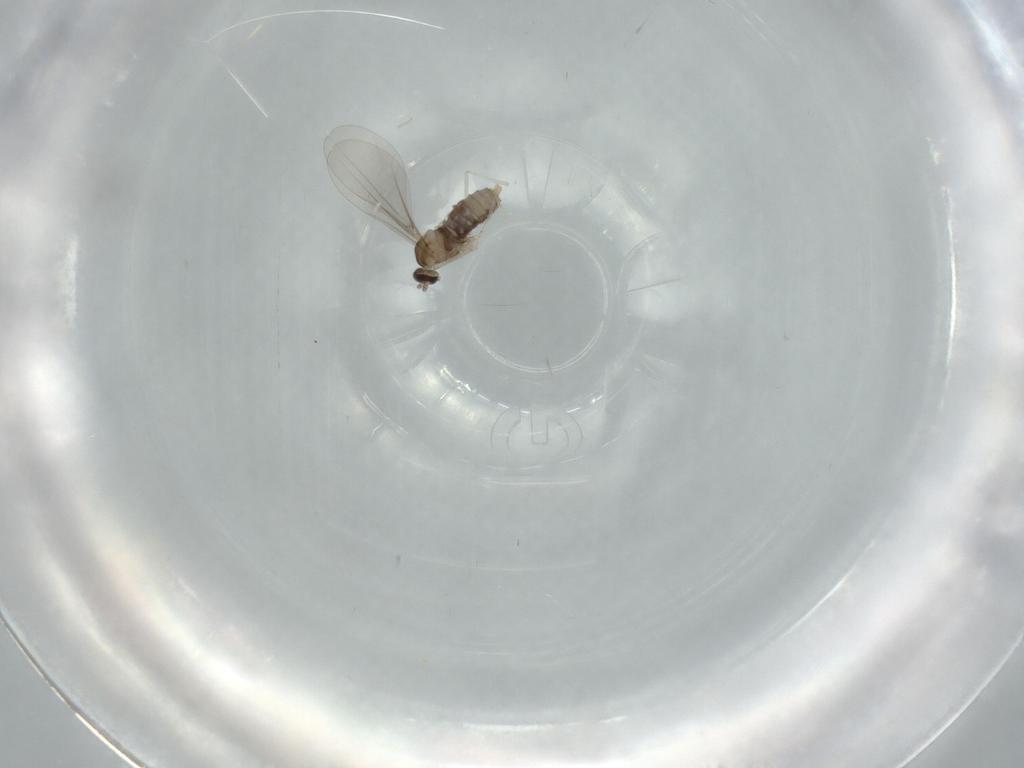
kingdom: Animalia
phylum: Arthropoda
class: Insecta
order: Diptera
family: Cecidomyiidae
